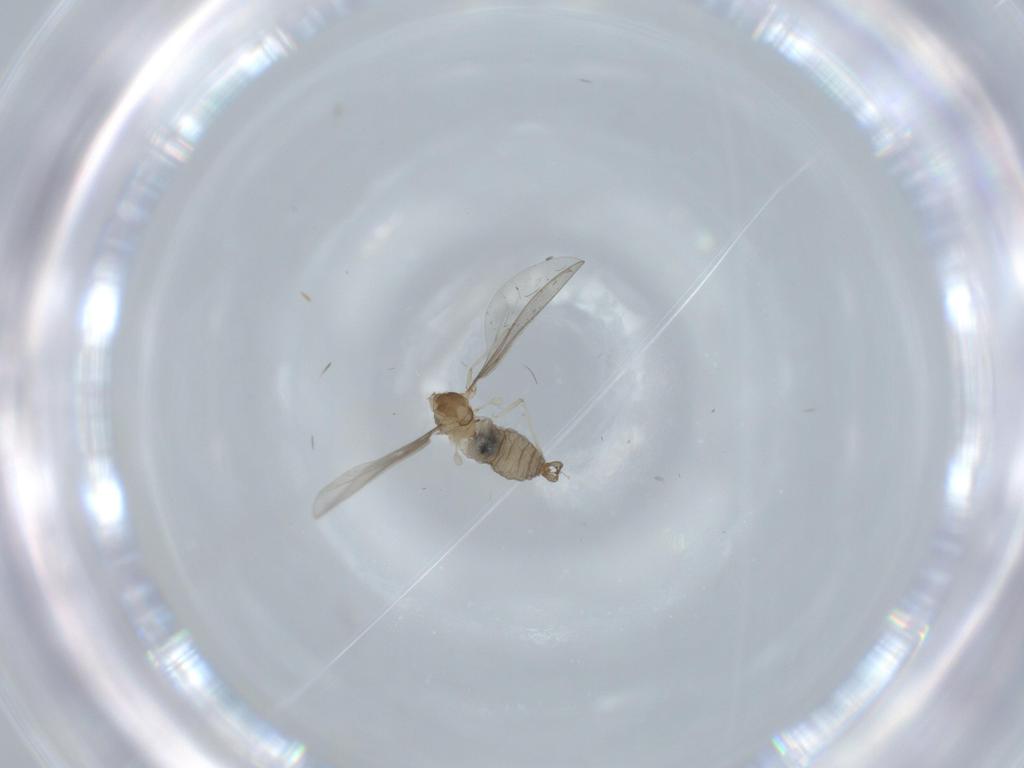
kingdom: Animalia
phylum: Arthropoda
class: Insecta
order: Diptera
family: Cecidomyiidae
